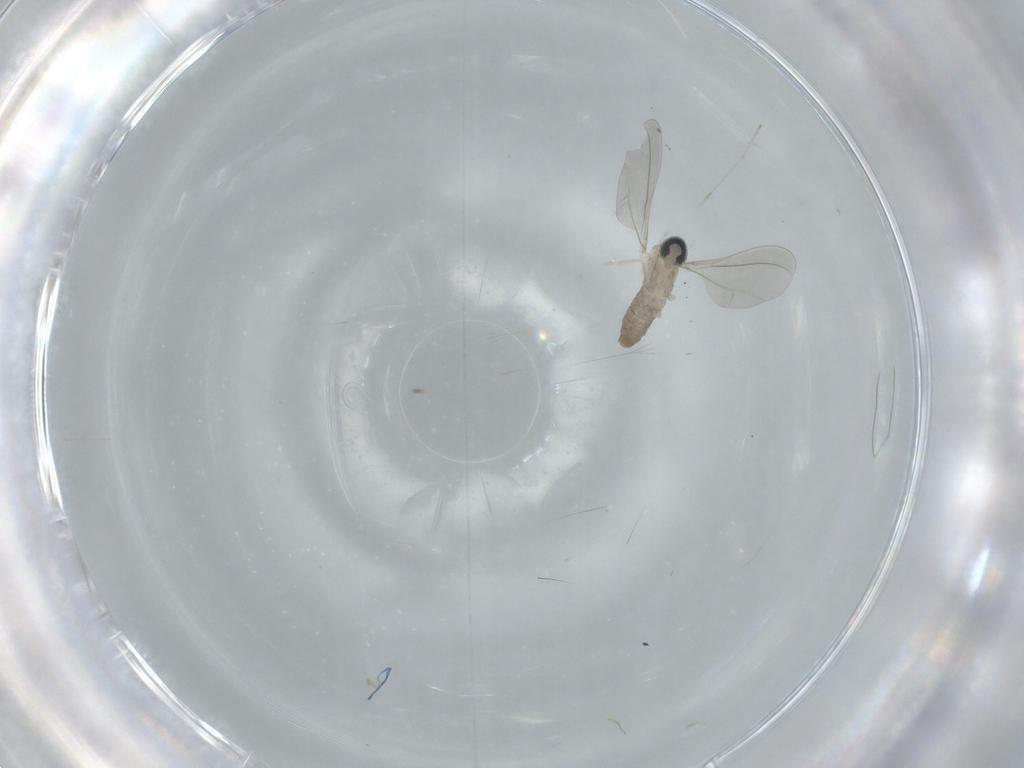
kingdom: Animalia
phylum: Arthropoda
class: Insecta
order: Diptera
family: Cecidomyiidae
